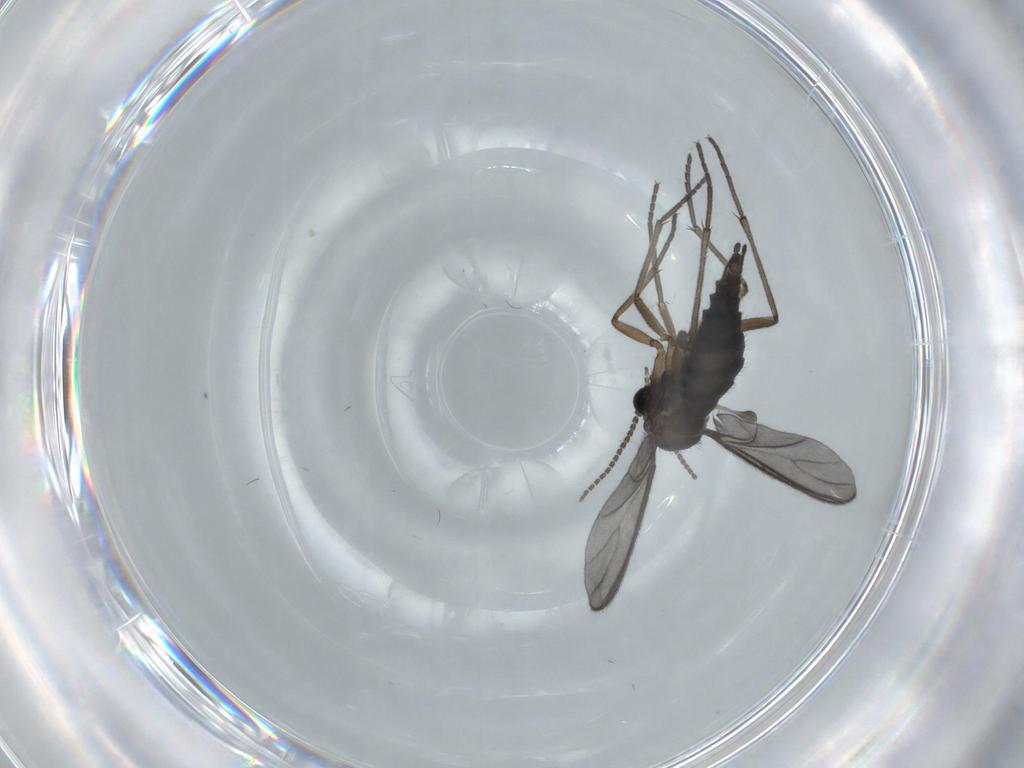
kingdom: Animalia
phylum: Arthropoda
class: Insecta
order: Diptera
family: Sciaridae
